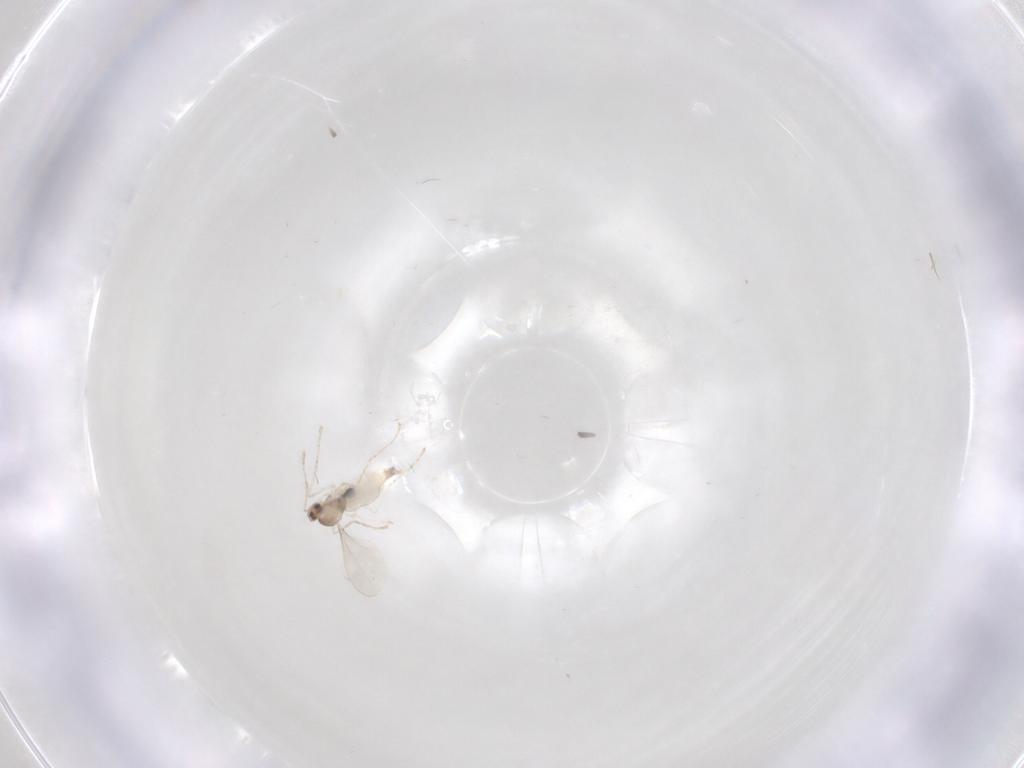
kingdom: Animalia
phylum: Arthropoda
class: Insecta
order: Diptera
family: Cecidomyiidae
